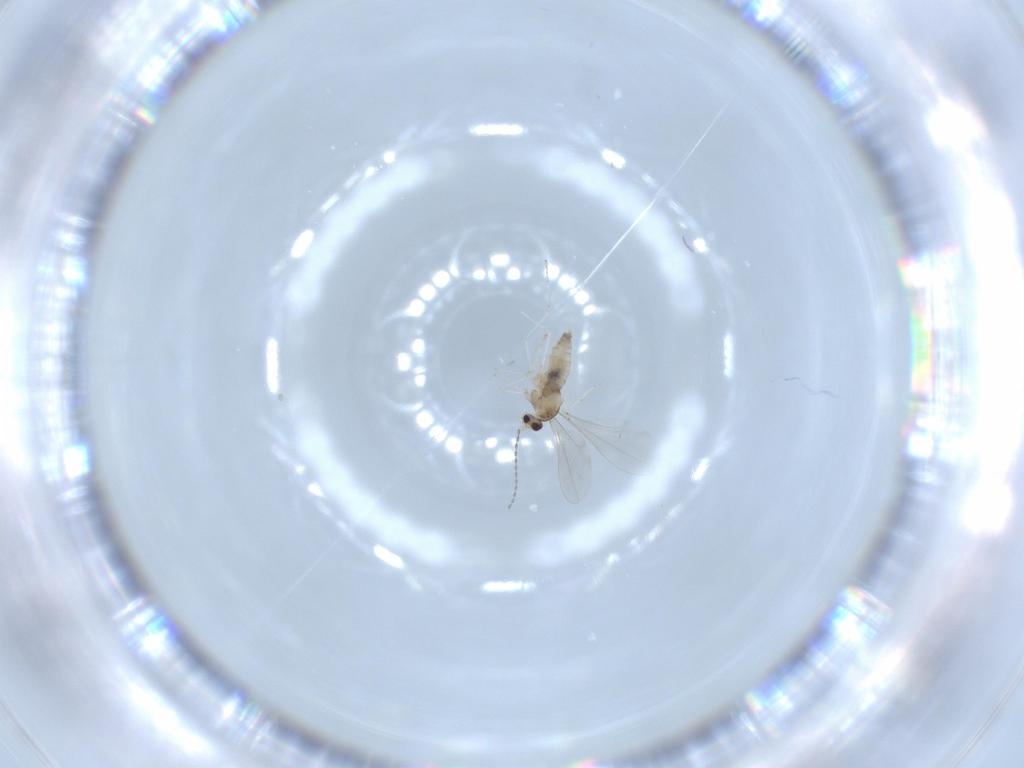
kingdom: Animalia
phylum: Arthropoda
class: Insecta
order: Diptera
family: Cecidomyiidae
